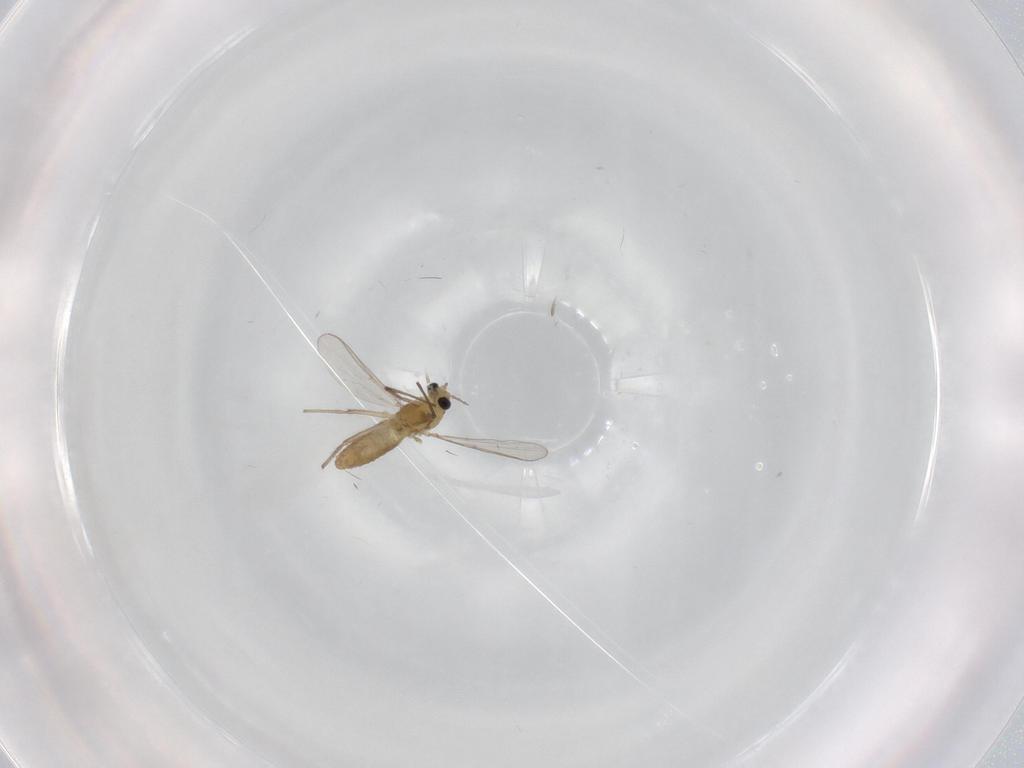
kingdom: Animalia
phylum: Arthropoda
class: Insecta
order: Diptera
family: Chironomidae
